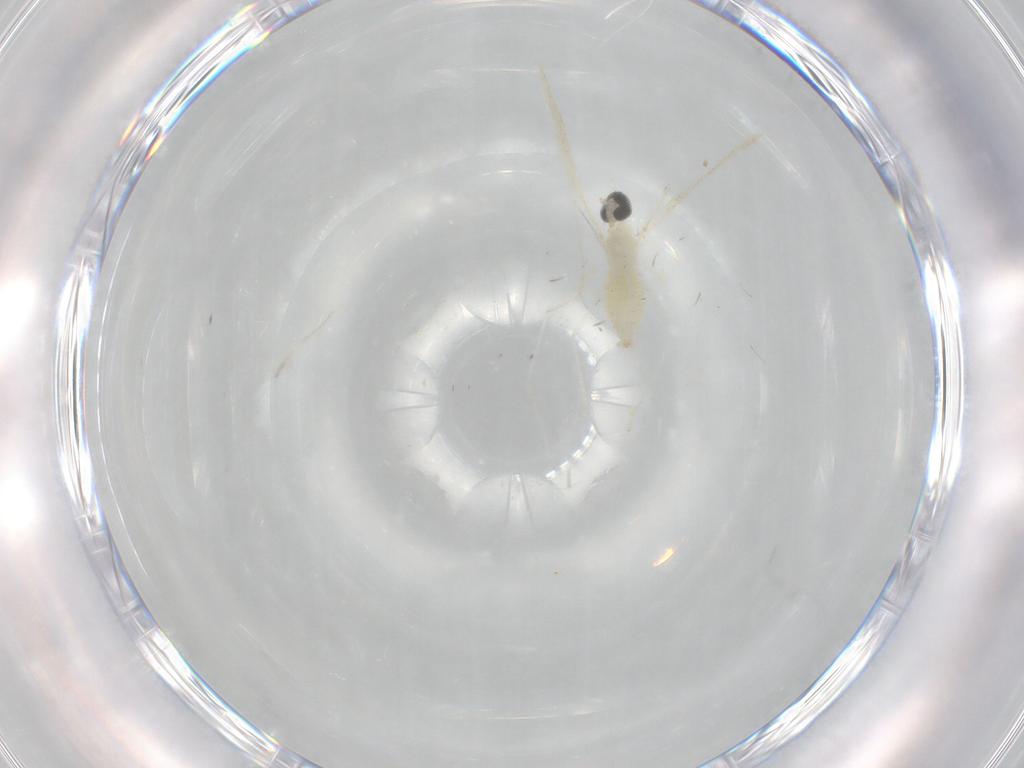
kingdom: Animalia
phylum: Arthropoda
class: Insecta
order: Diptera
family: Cecidomyiidae
